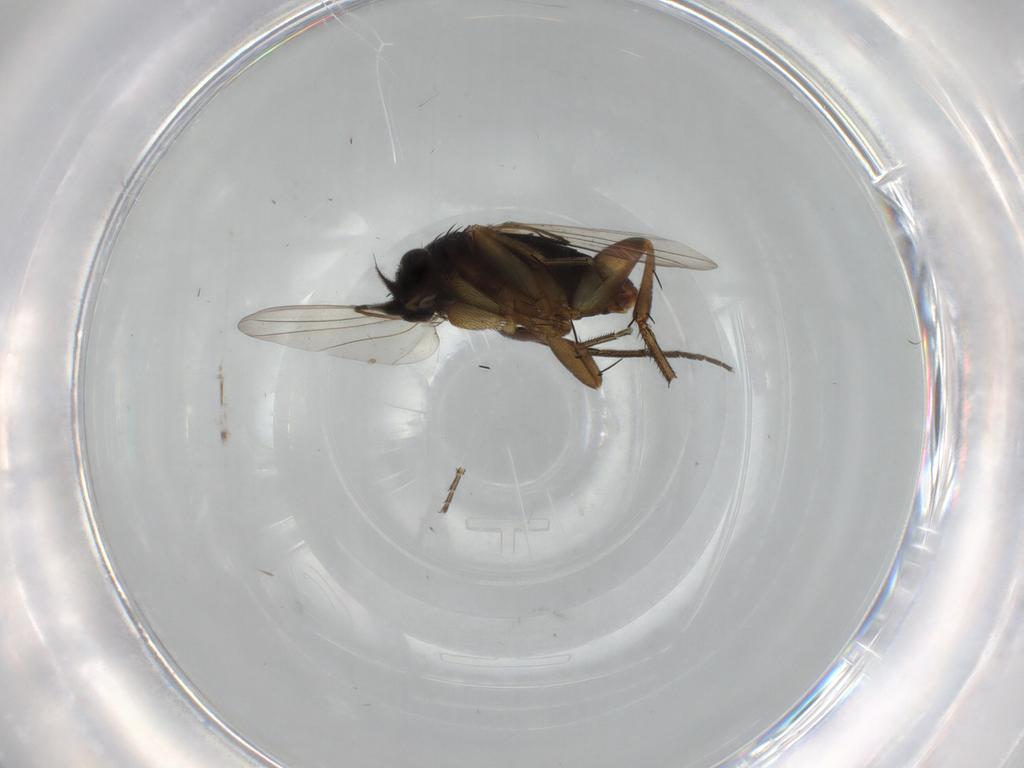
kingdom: Animalia
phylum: Arthropoda
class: Insecta
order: Diptera
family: Phoridae
